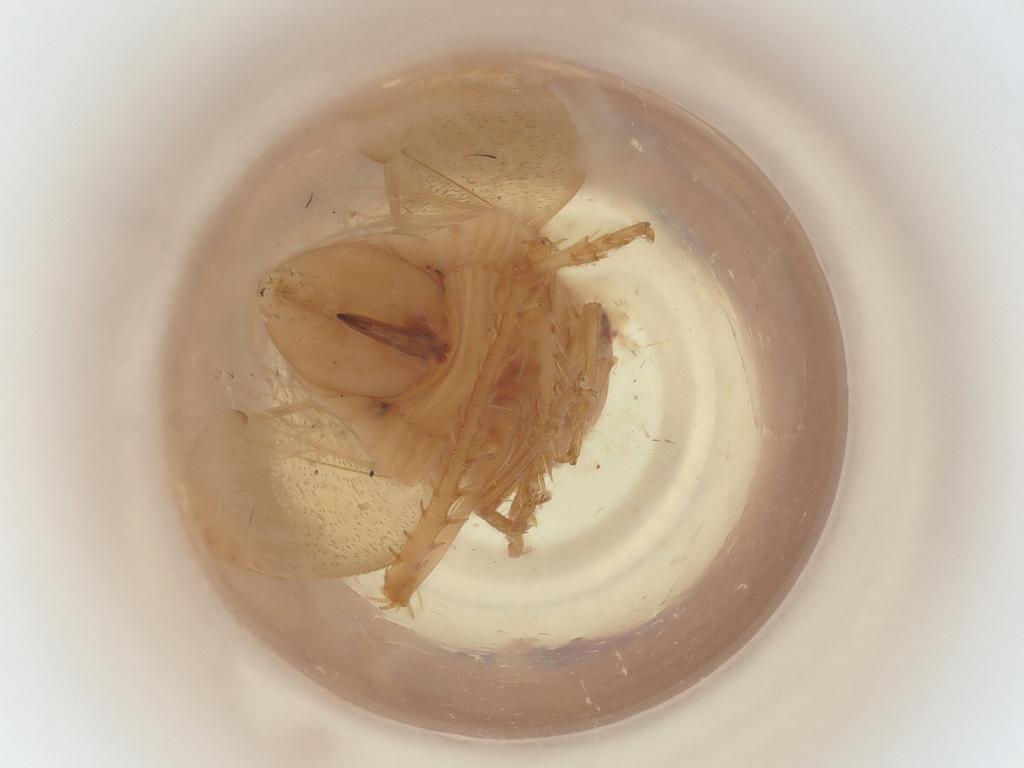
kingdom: Animalia
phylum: Arthropoda
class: Insecta
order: Hemiptera
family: Cicadellidae
